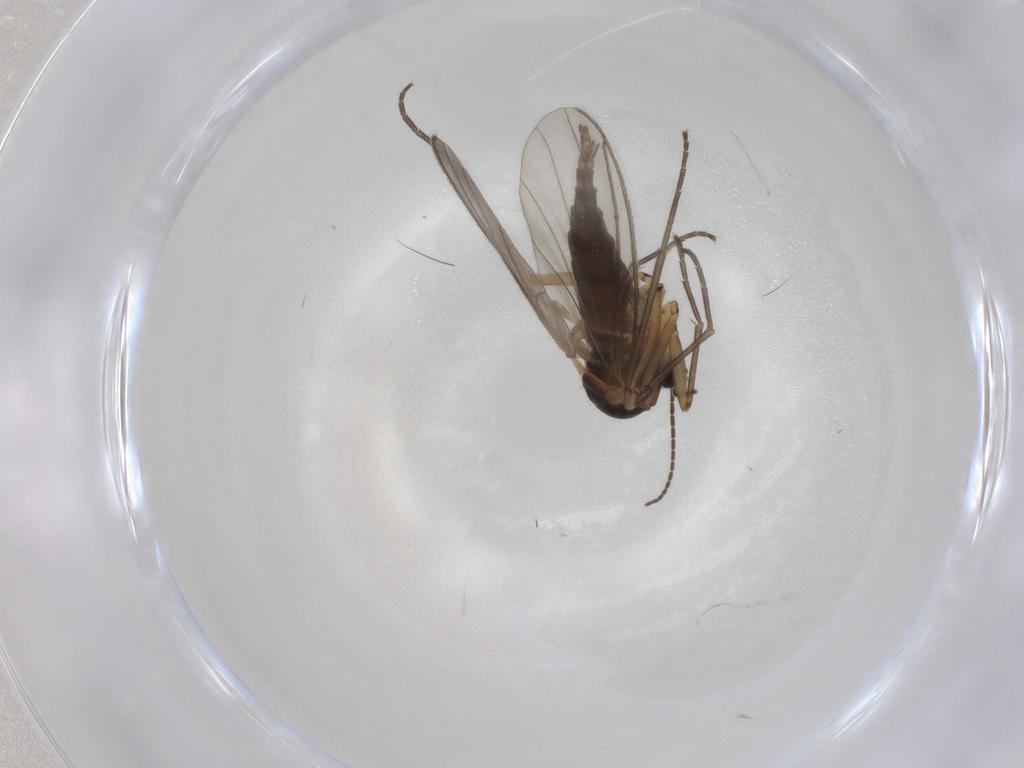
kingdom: Animalia
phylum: Arthropoda
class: Insecta
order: Diptera
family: Sciaridae
